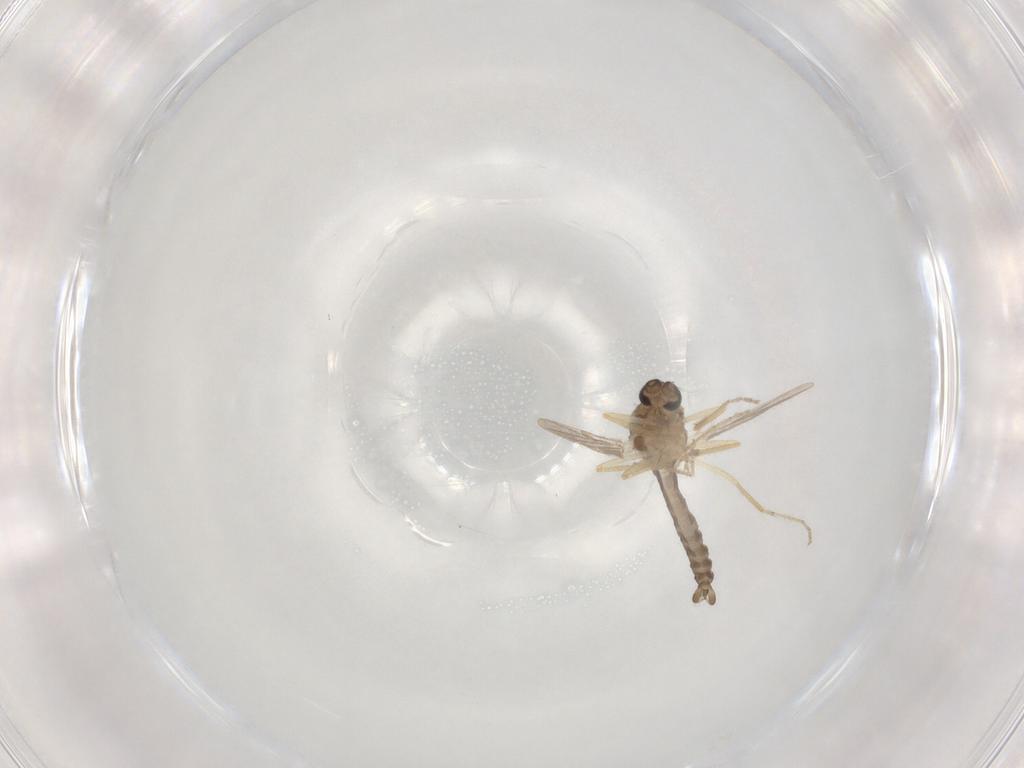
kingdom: Animalia
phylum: Arthropoda
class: Insecta
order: Diptera
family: Ceratopogonidae
